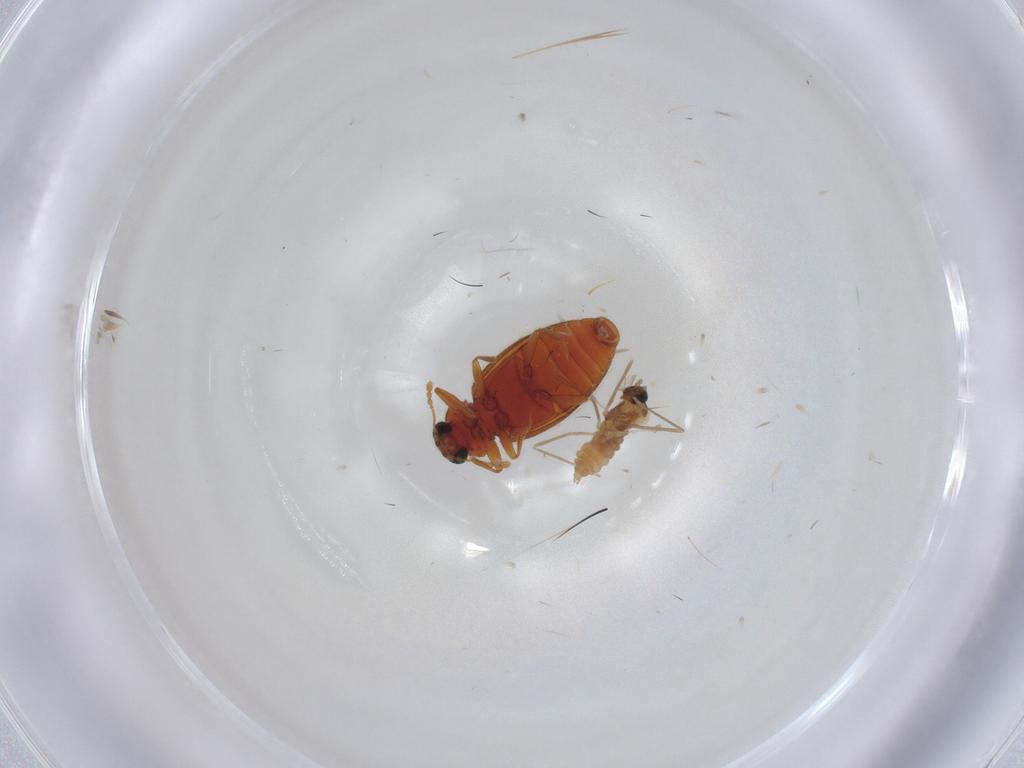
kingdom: Animalia
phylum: Arthropoda
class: Insecta
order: Diptera
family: Cecidomyiidae
